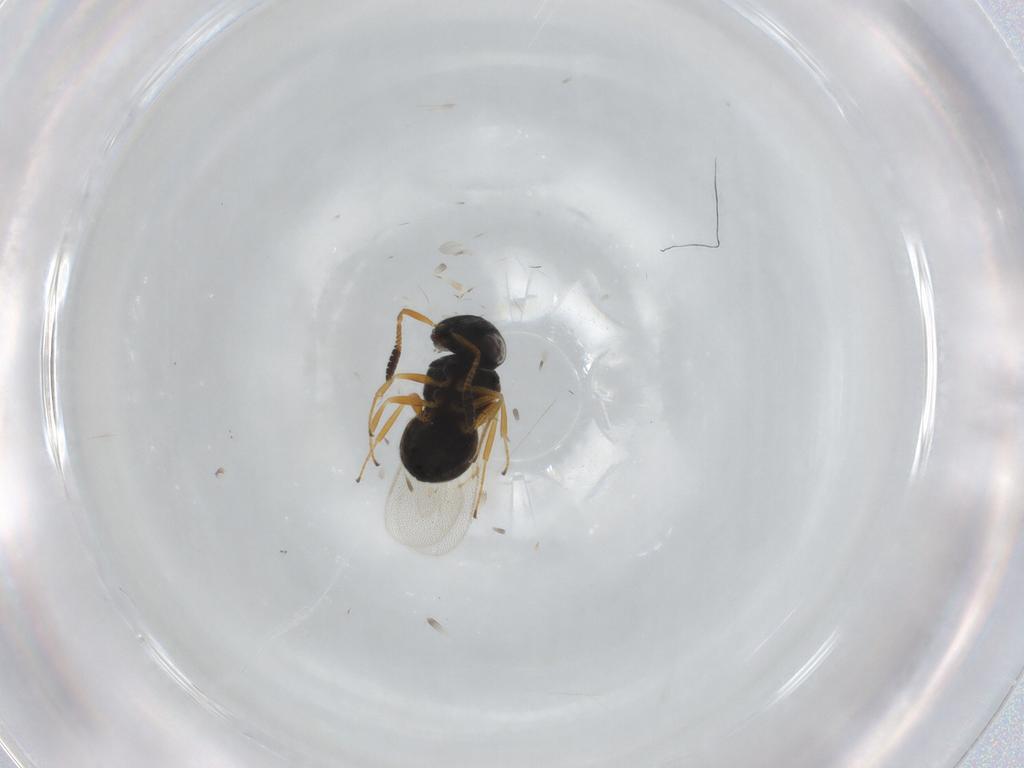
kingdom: Animalia
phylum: Arthropoda
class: Insecta
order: Hymenoptera
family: Scelionidae
